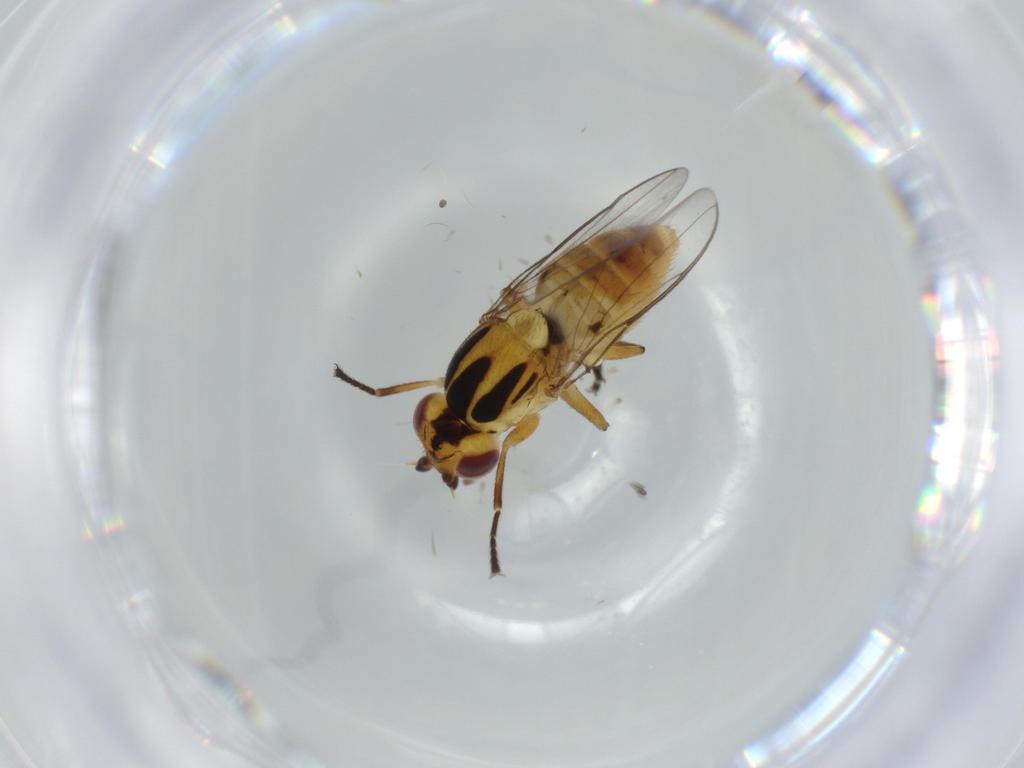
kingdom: Animalia
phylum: Arthropoda
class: Insecta
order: Diptera
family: Chloropidae
